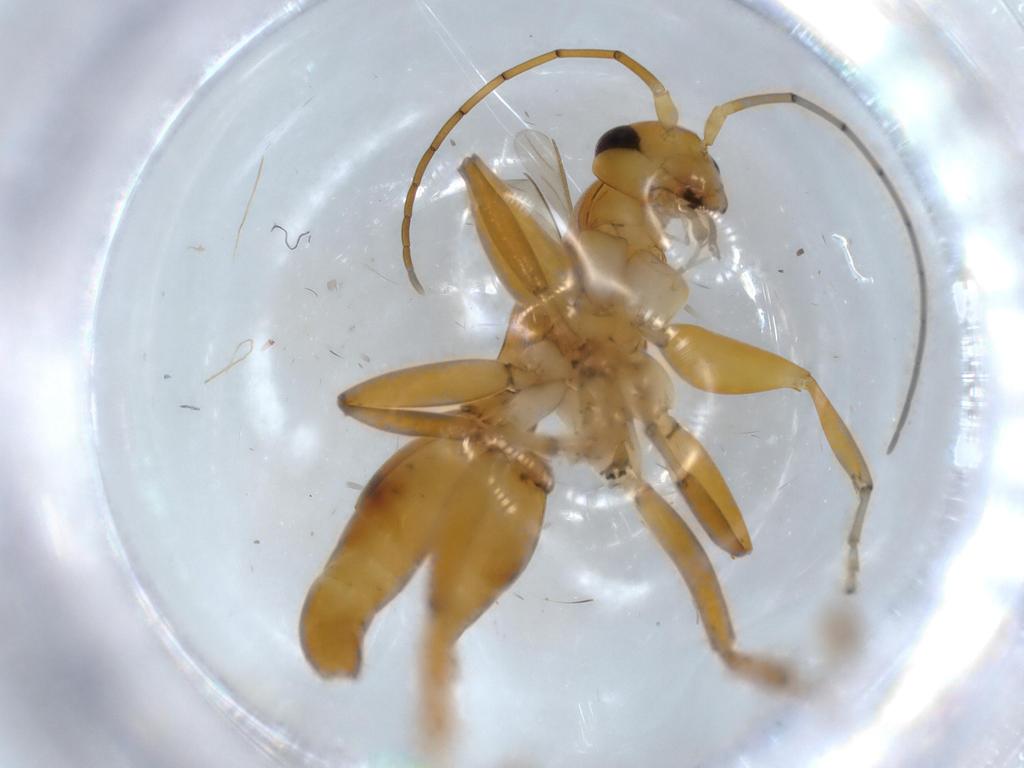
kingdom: Animalia
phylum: Arthropoda
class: Insecta
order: Hymenoptera
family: Rhopalosomatidae
